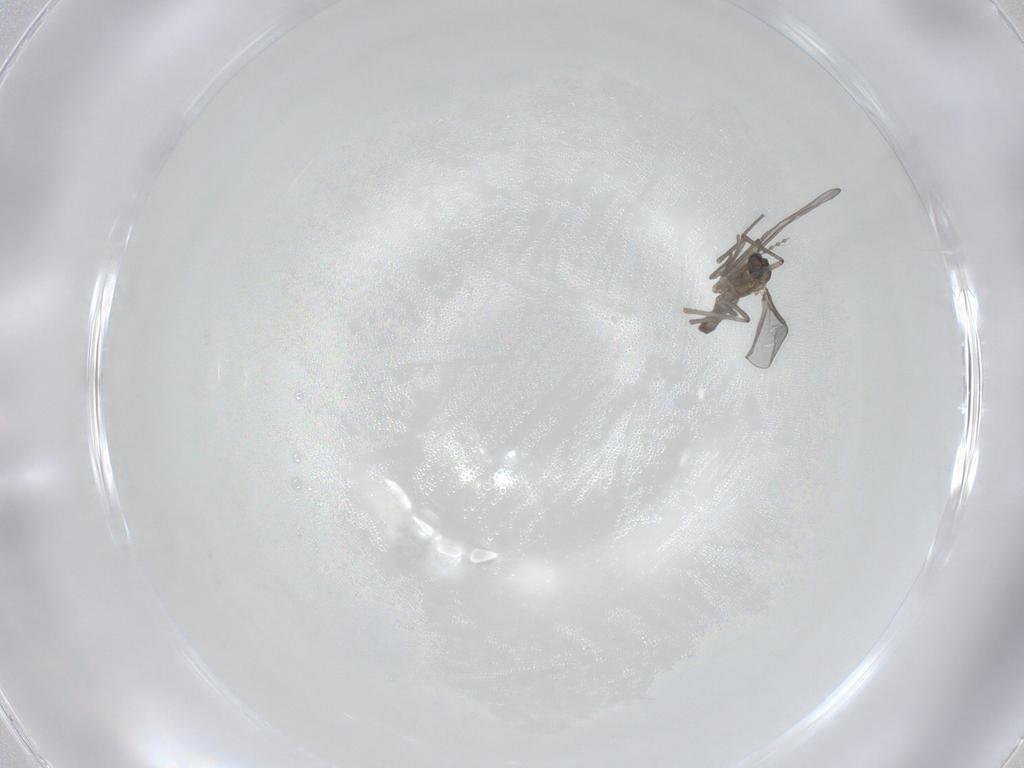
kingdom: Animalia
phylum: Arthropoda
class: Insecta
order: Diptera
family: Cecidomyiidae
